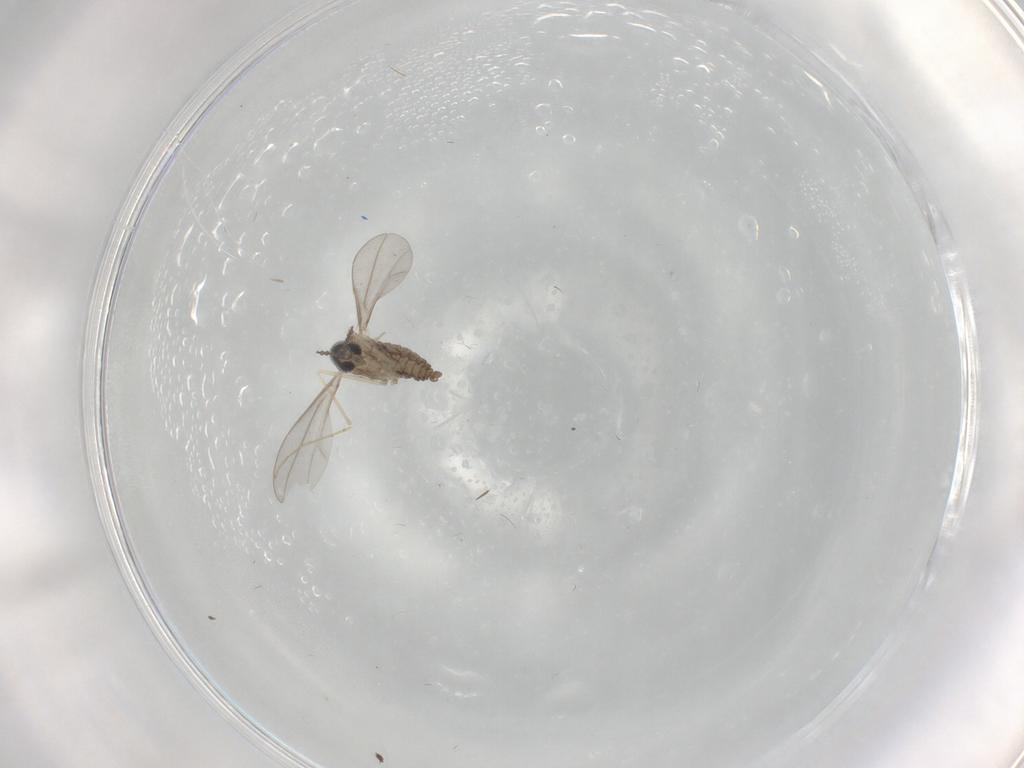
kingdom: Animalia
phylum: Arthropoda
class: Insecta
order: Diptera
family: Cecidomyiidae
